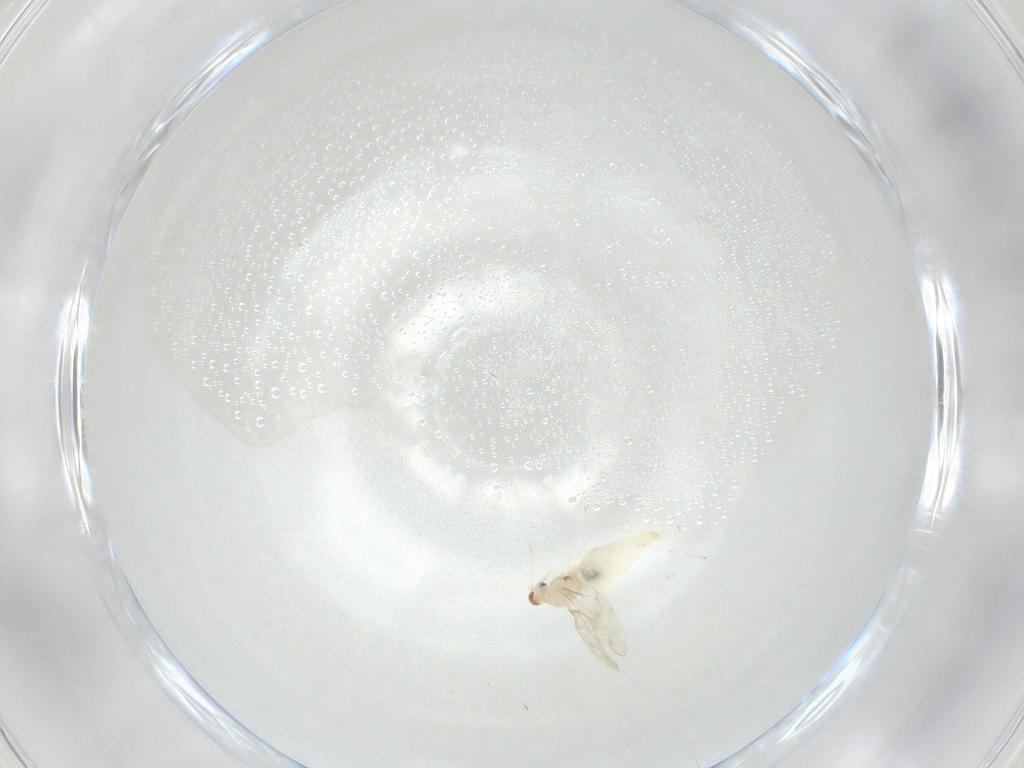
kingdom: Animalia
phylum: Arthropoda
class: Insecta
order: Diptera
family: Cecidomyiidae
